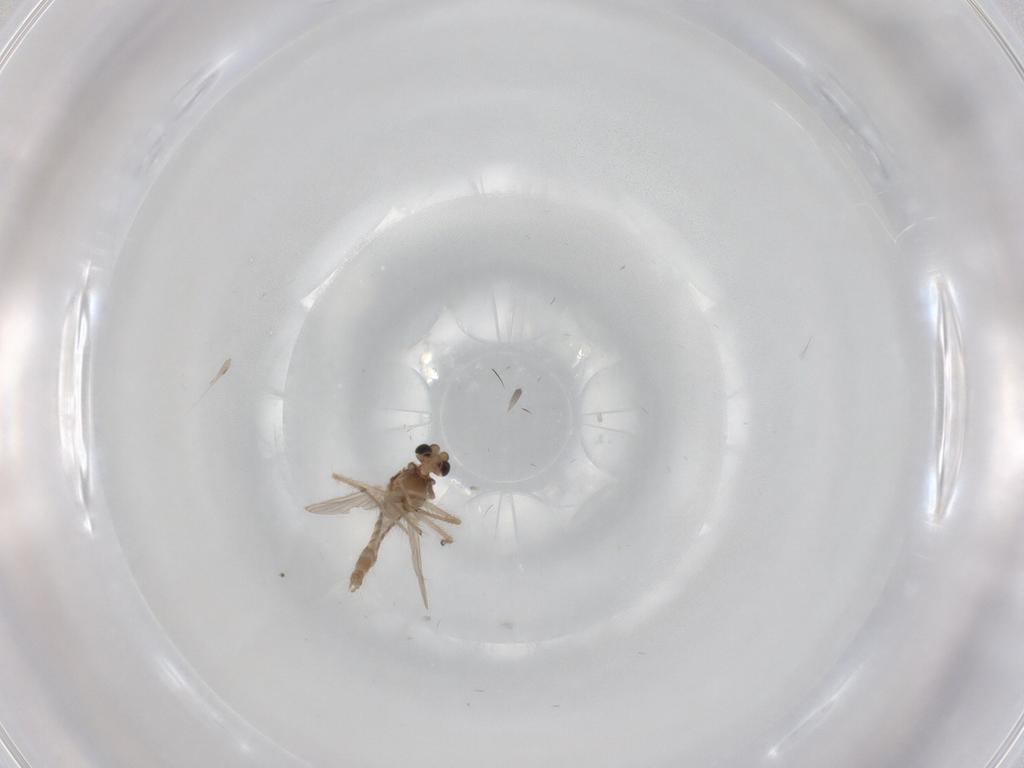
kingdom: Animalia
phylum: Arthropoda
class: Insecta
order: Diptera
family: Chironomidae
